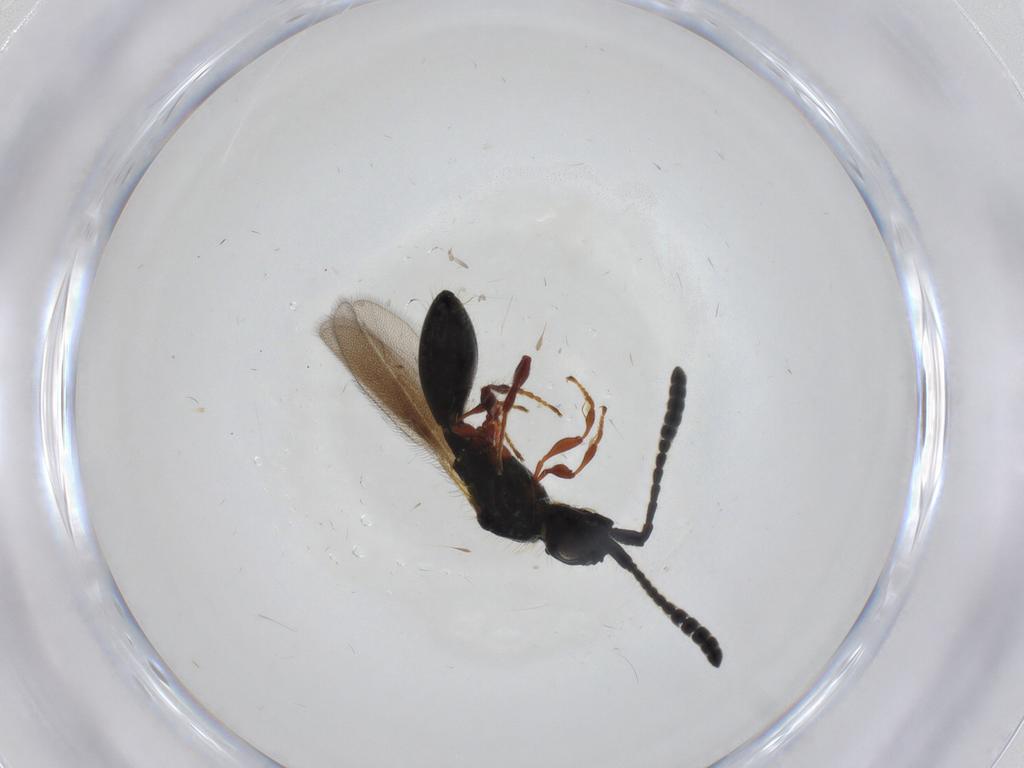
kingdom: Animalia
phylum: Arthropoda
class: Insecta
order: Hymenoptera
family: Diapriidae
